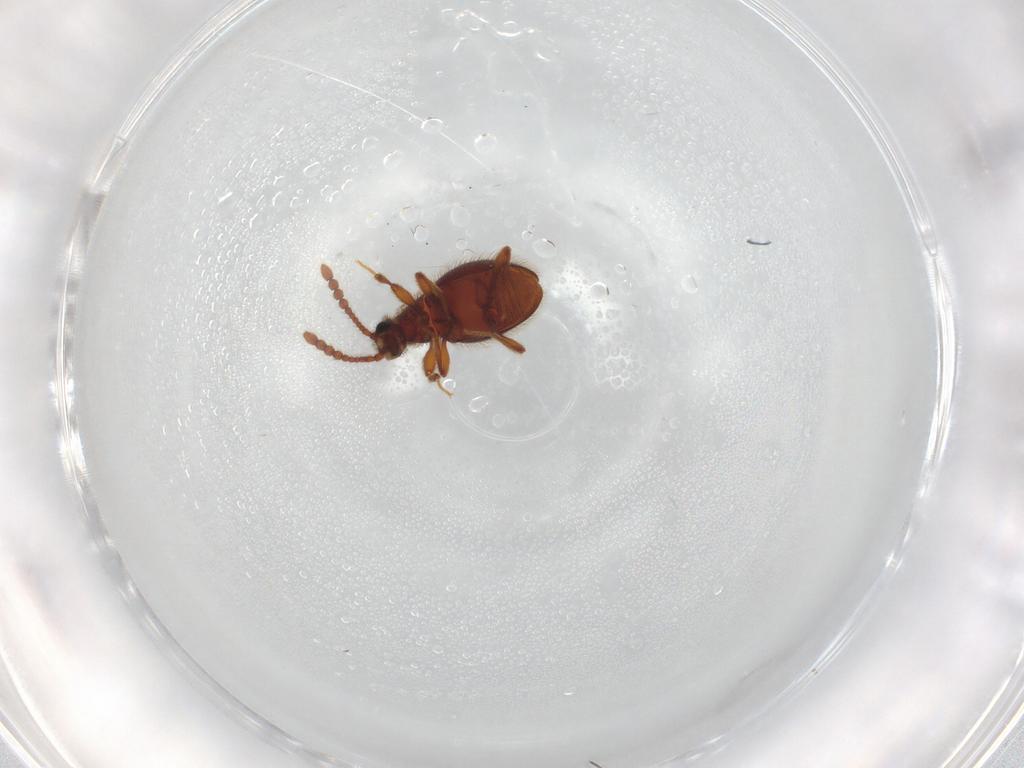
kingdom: Animalia
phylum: Arthropoda
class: Insecta
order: Coleoptera
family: Staphylinidae
